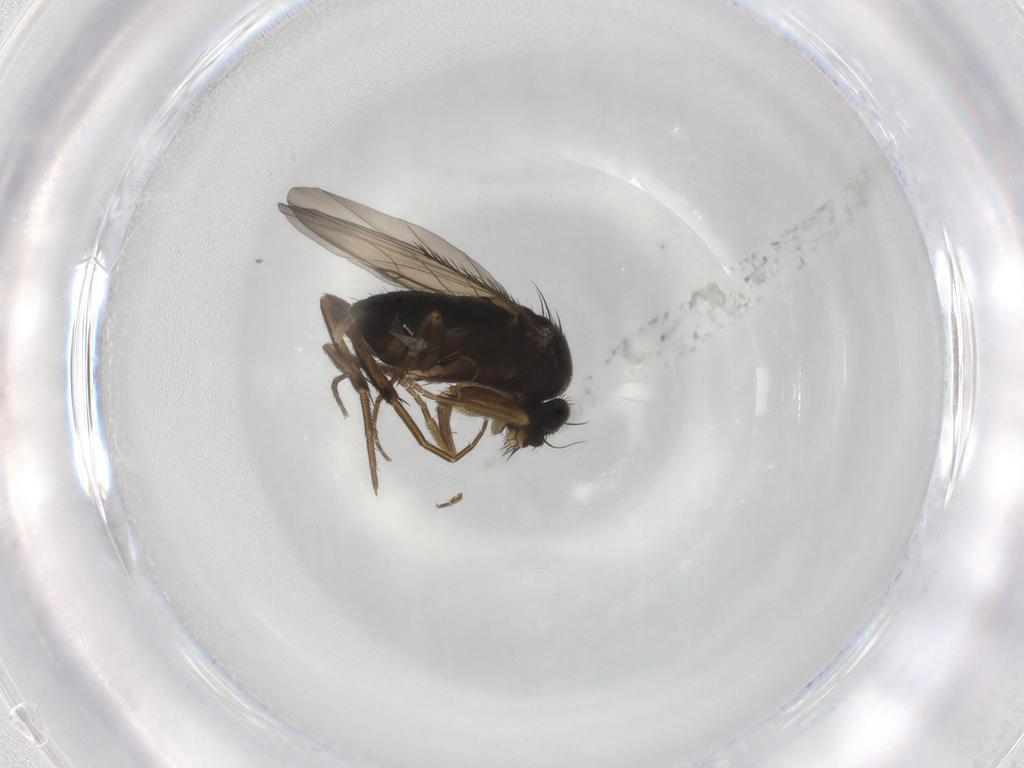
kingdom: Animalia
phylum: Arthropoda
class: Insecta
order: Diptera
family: Phoridae
